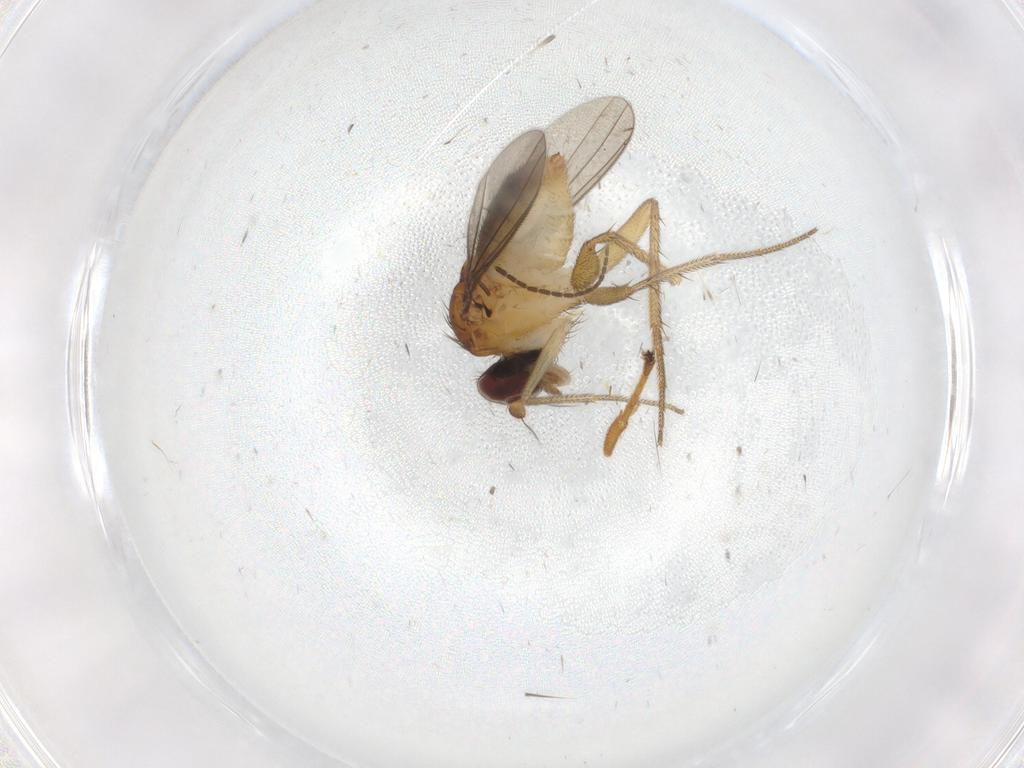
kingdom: Animalia
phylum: Arthropoda
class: Insecta
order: Diptera
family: Dolichopodidae
